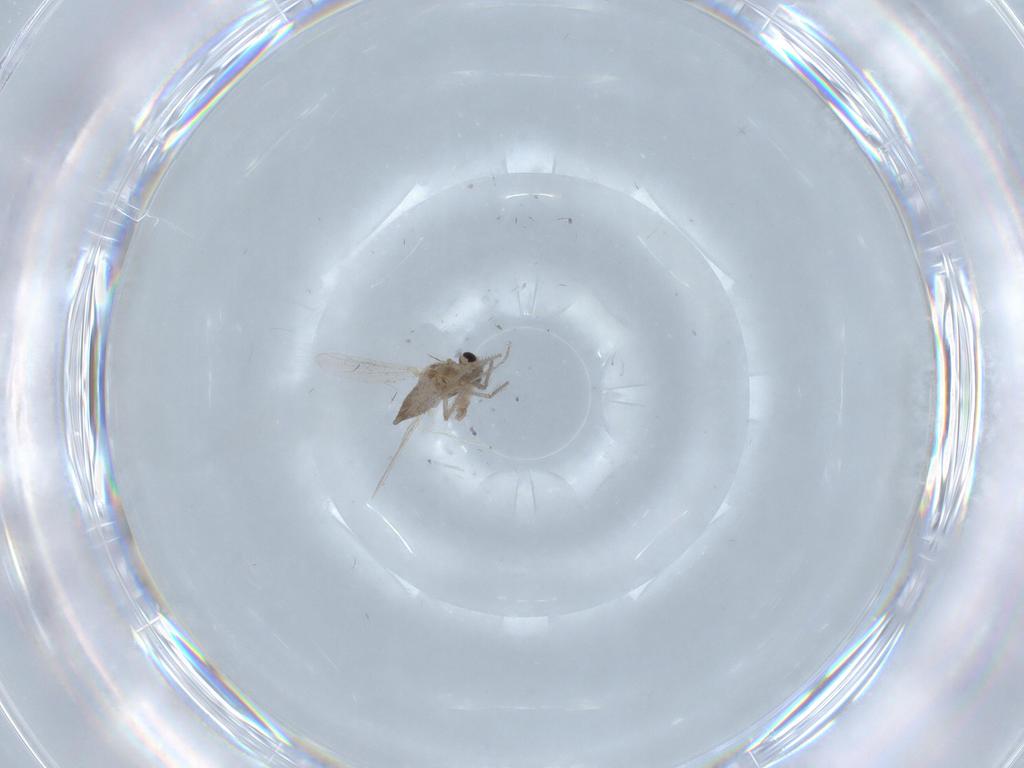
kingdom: Animalia
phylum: Arthropoda
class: Insecta
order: Diptera
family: Chironomidae
